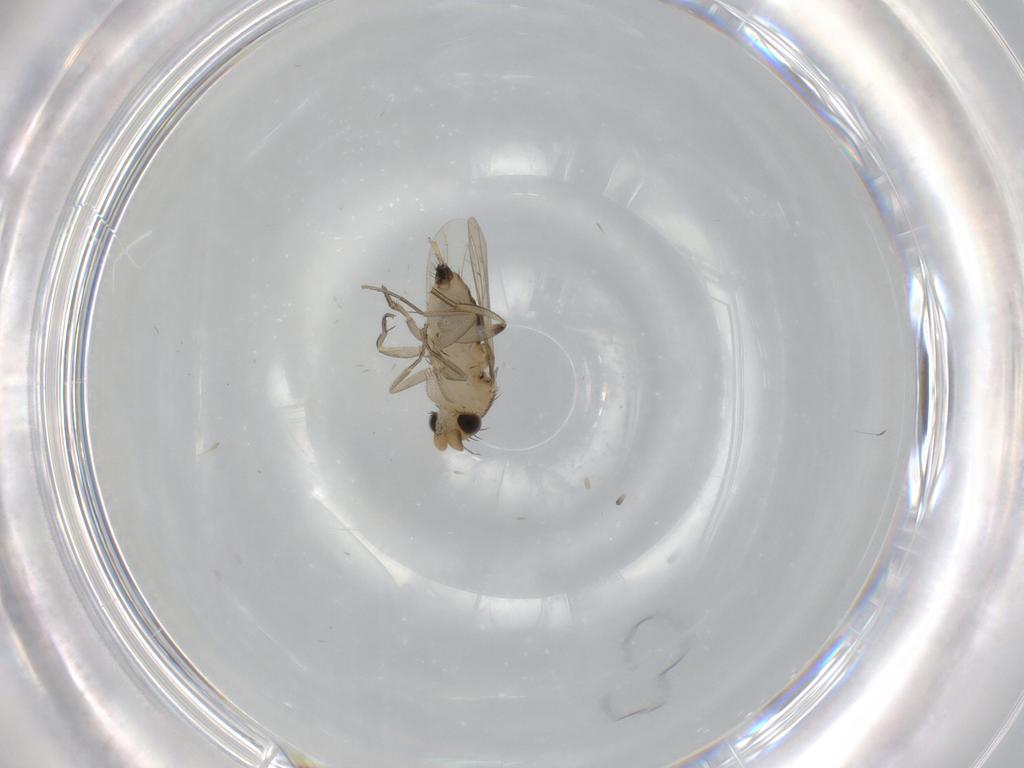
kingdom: Animalia
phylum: Arthropoda
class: Insecta
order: Diptera
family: Phoridae
